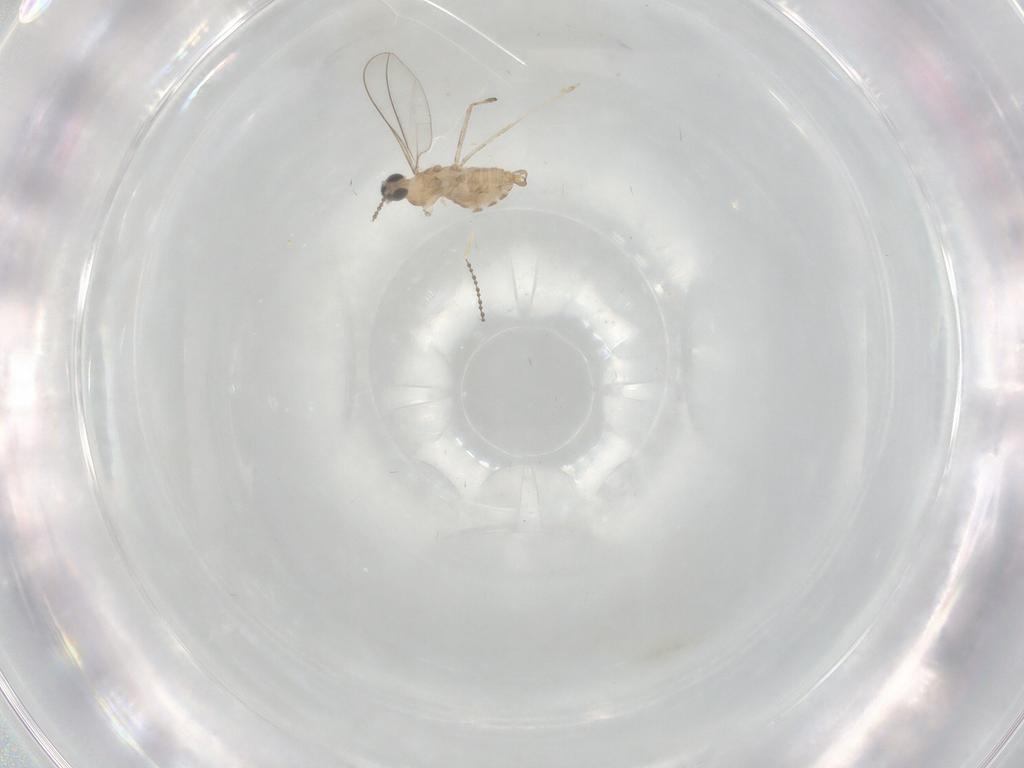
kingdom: Animalia
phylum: Arthropoda
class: Insecta
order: Diptera
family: Cecidomyiidae
